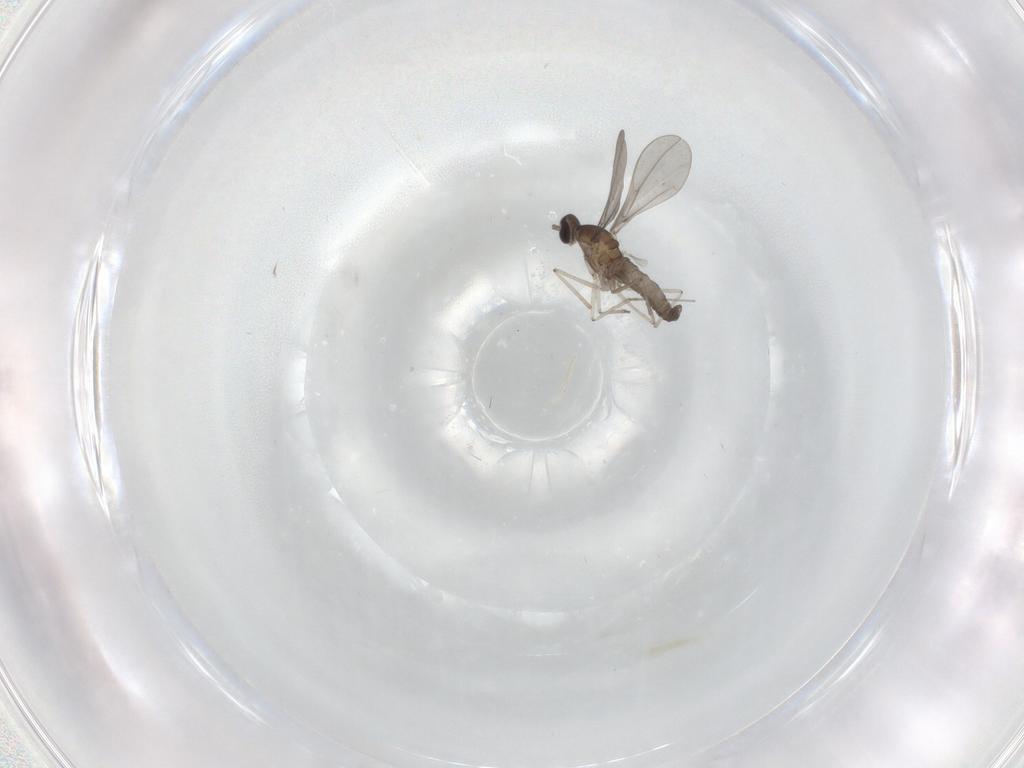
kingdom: Animalia
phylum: Arthropoda
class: Insecta
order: Diptera
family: Ceratopogonidae
